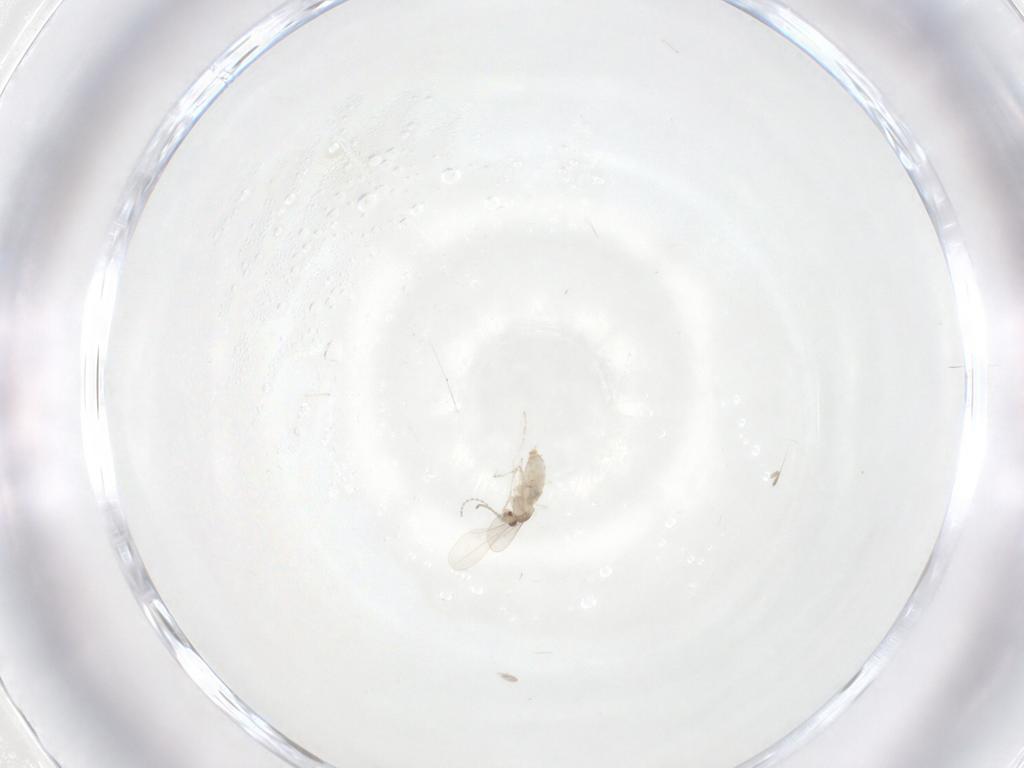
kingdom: Animalia
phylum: Arthropoda
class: Insecta
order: Diptera
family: Cecidomyiidae
